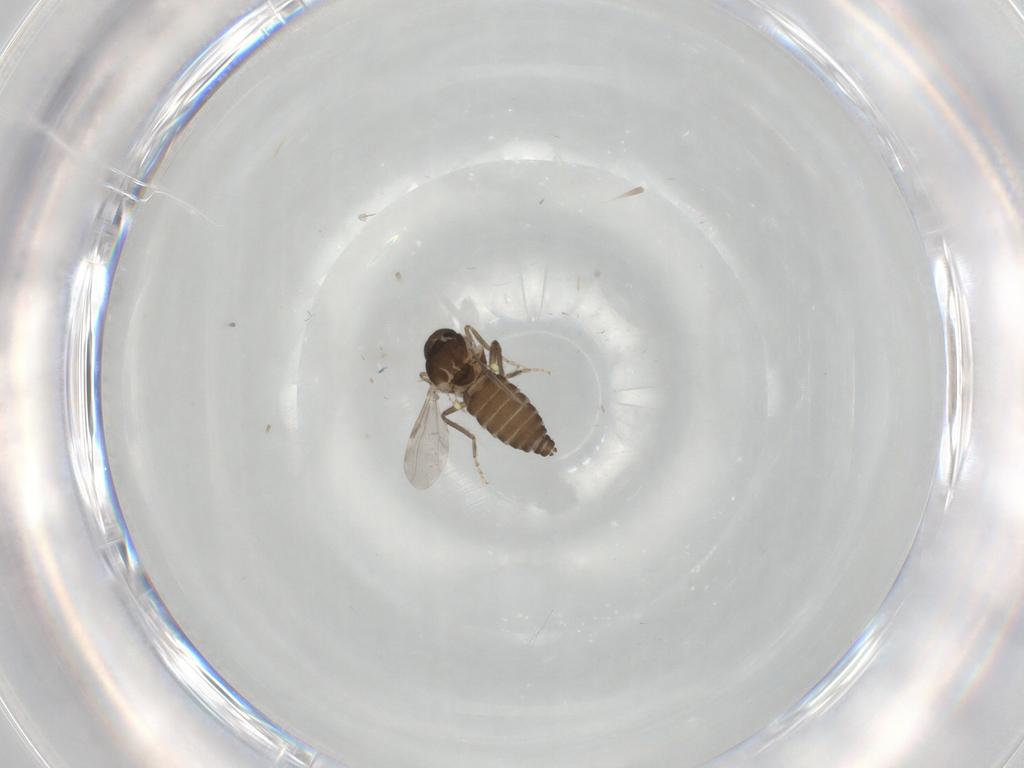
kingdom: Animalia
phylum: Arthropoda
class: Insecta
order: Diptera
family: Ceratopogonidae
